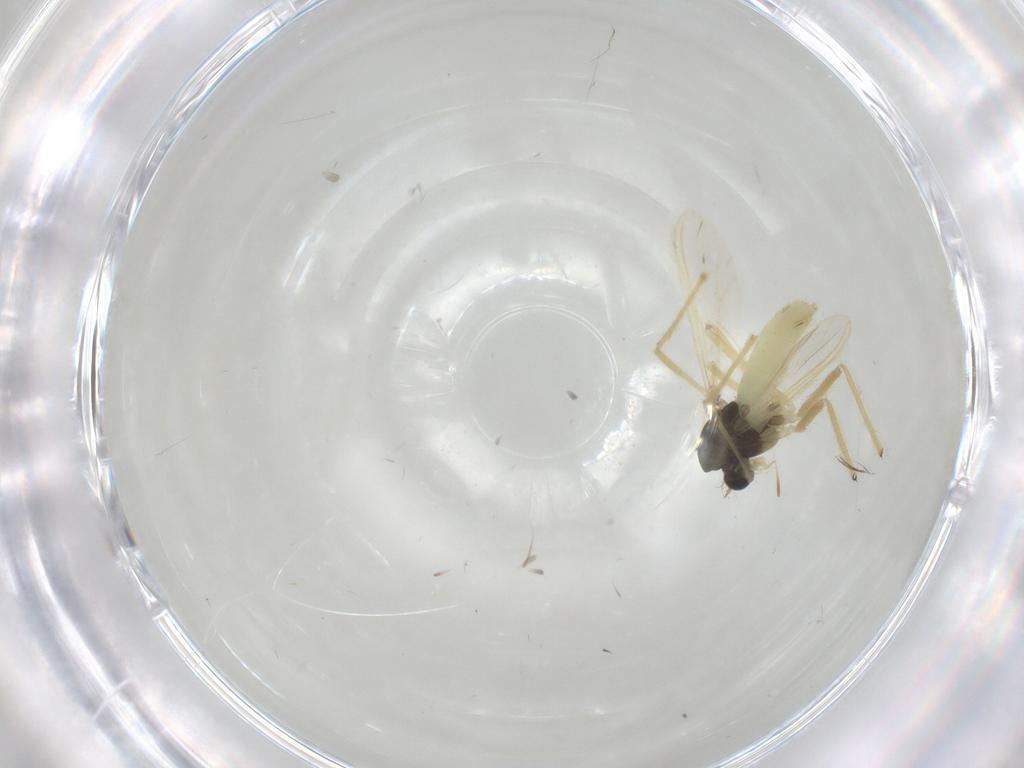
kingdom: Animalia
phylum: Arthropoda
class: Insecta
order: Diptera
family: Chironomidae
